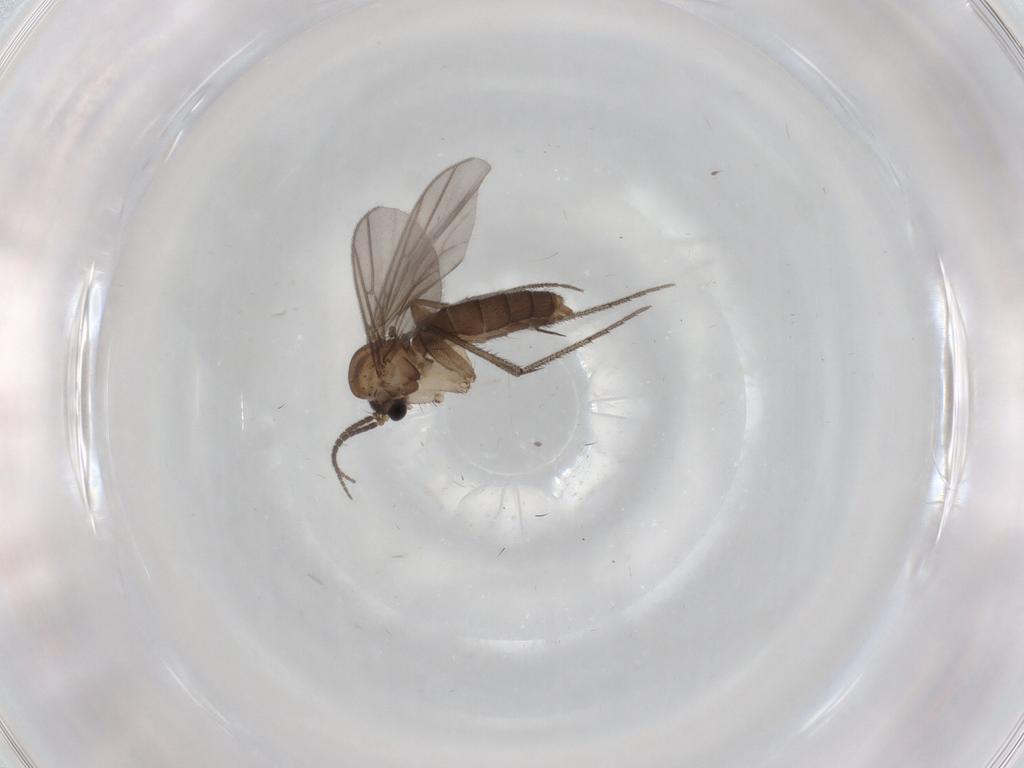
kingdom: Animalia
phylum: Arthropoda
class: Insecta
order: Diptera
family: Mycetophilidae
